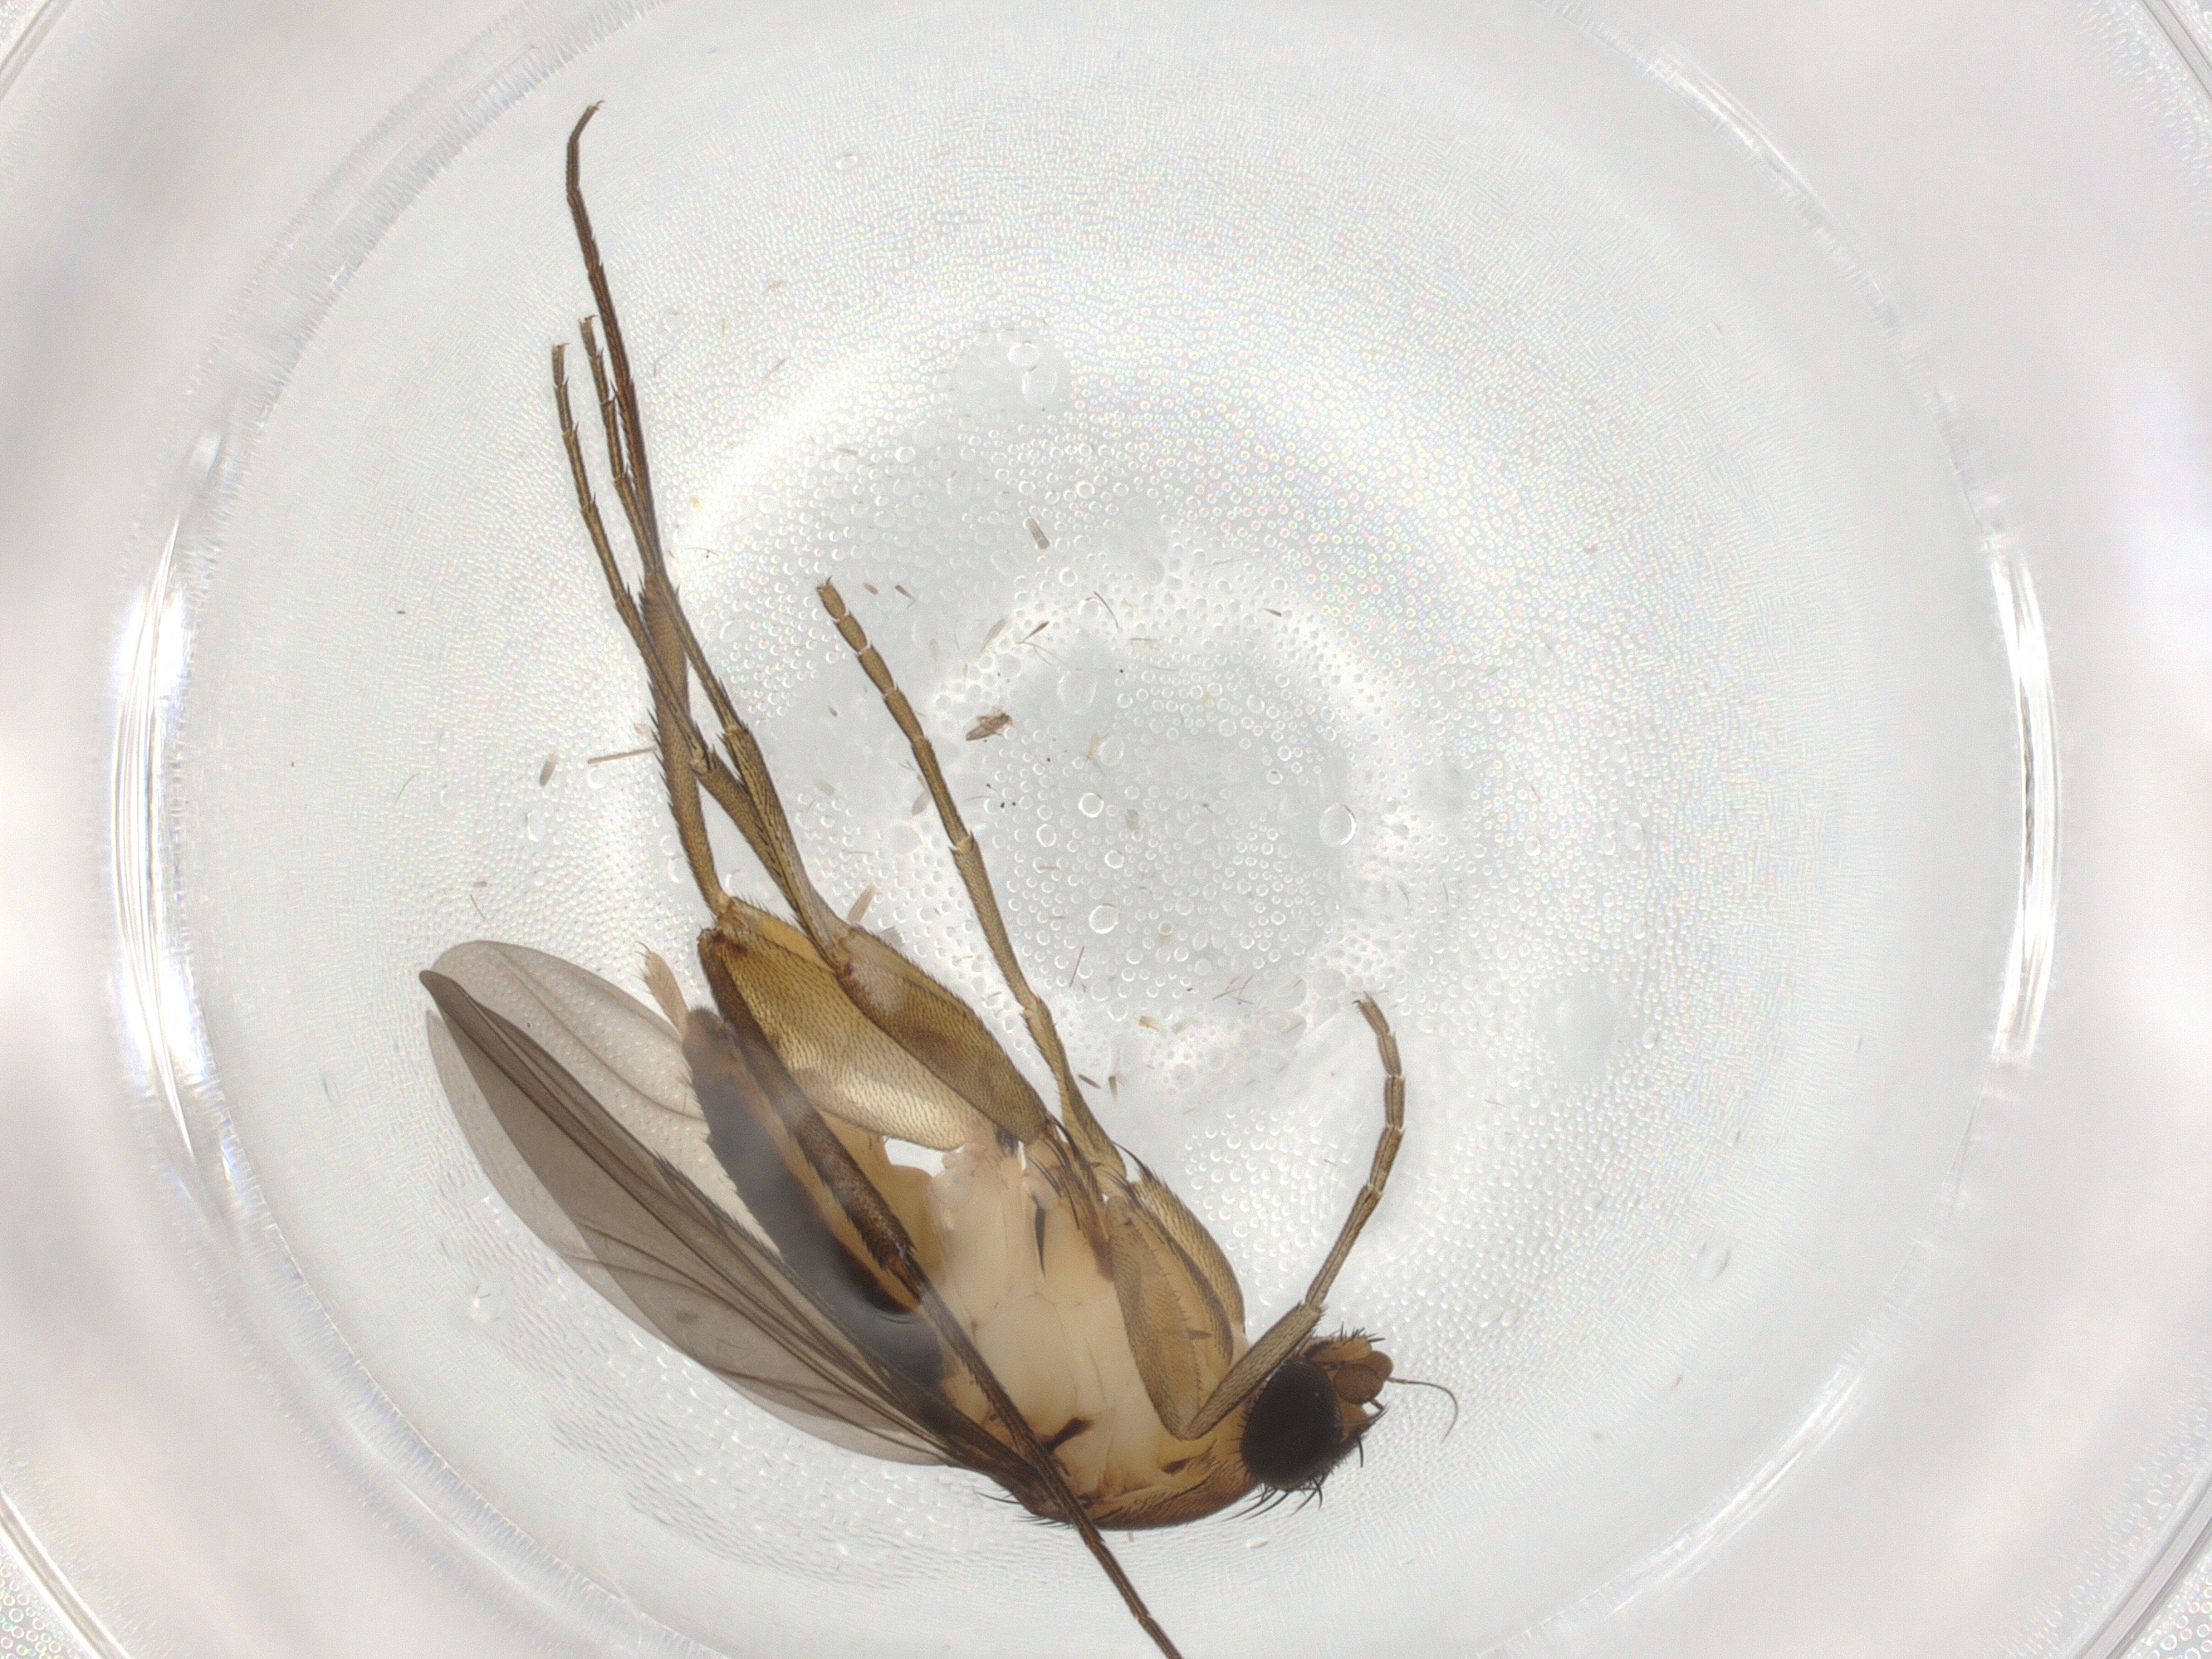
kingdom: Animalia
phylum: Arthropoda
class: Insecta
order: Diptera
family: Phoridae
